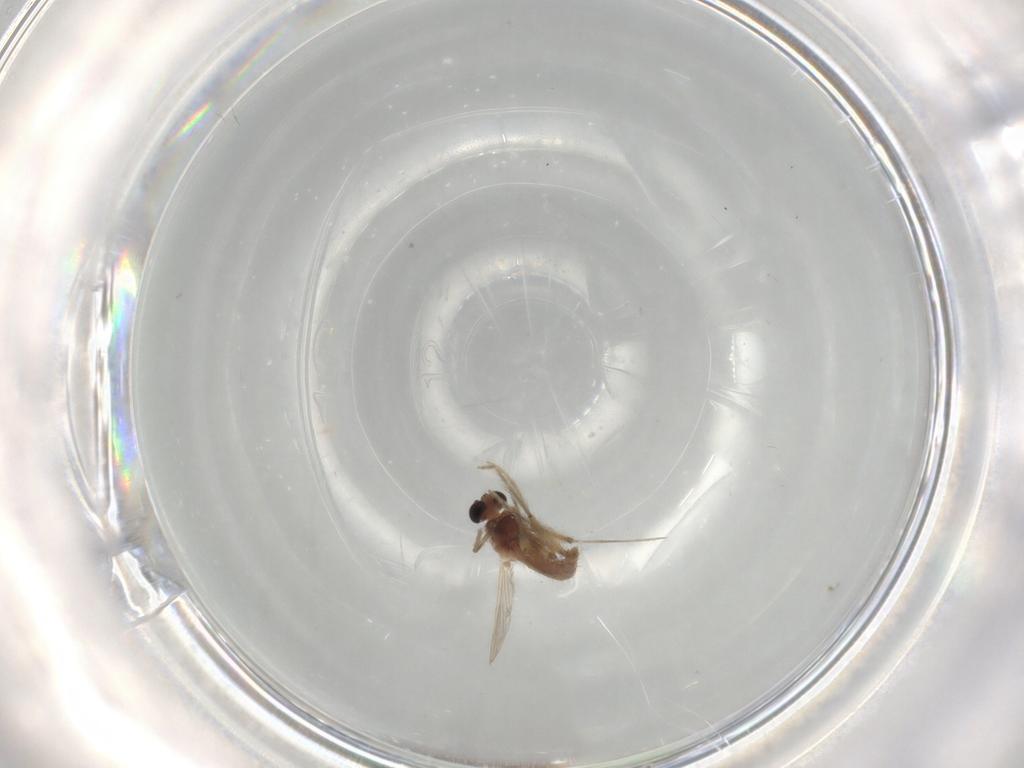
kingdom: Animalia
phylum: Arthropoda
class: Insecta
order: Diptera
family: Chironomidae
